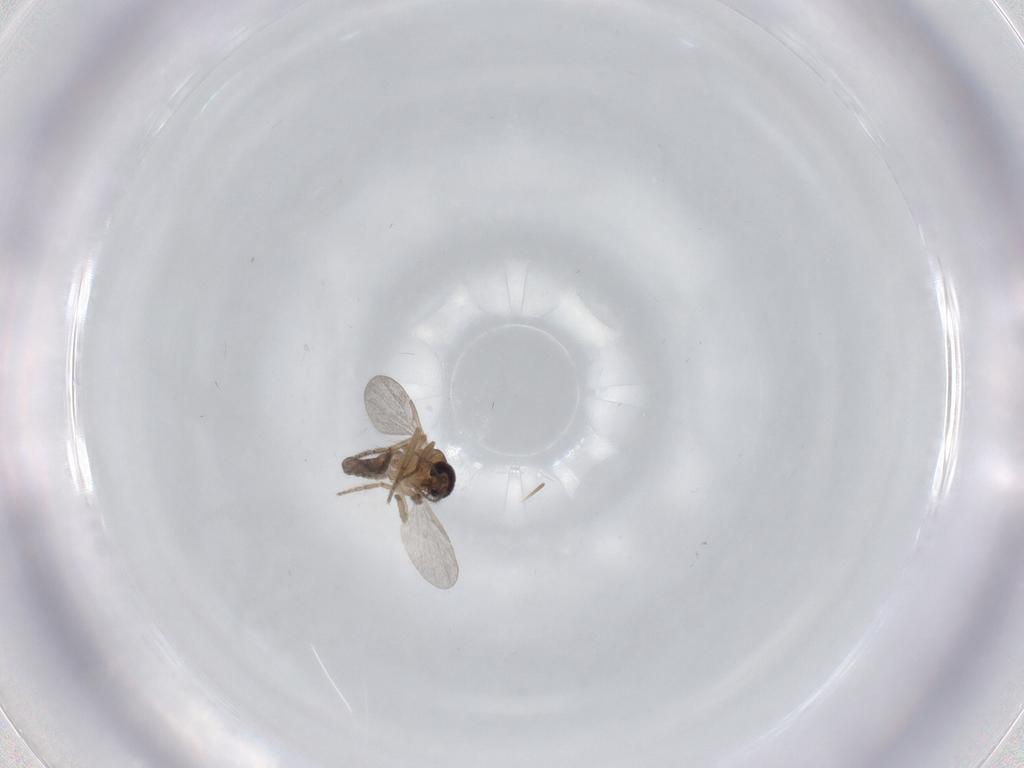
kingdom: Animalia
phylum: Arthropoda
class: Insecta
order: Diptera
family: Ceratopogonidae
